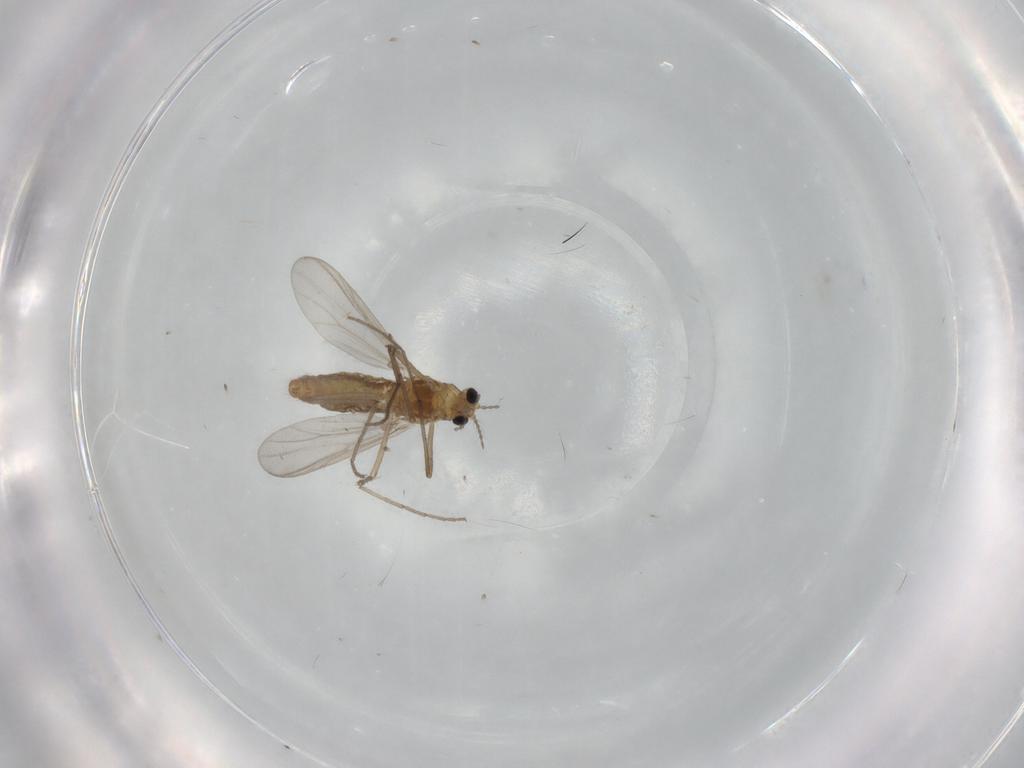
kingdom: Animalia
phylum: Arthropoda
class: Insecta
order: Diptera
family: Chironomidae
